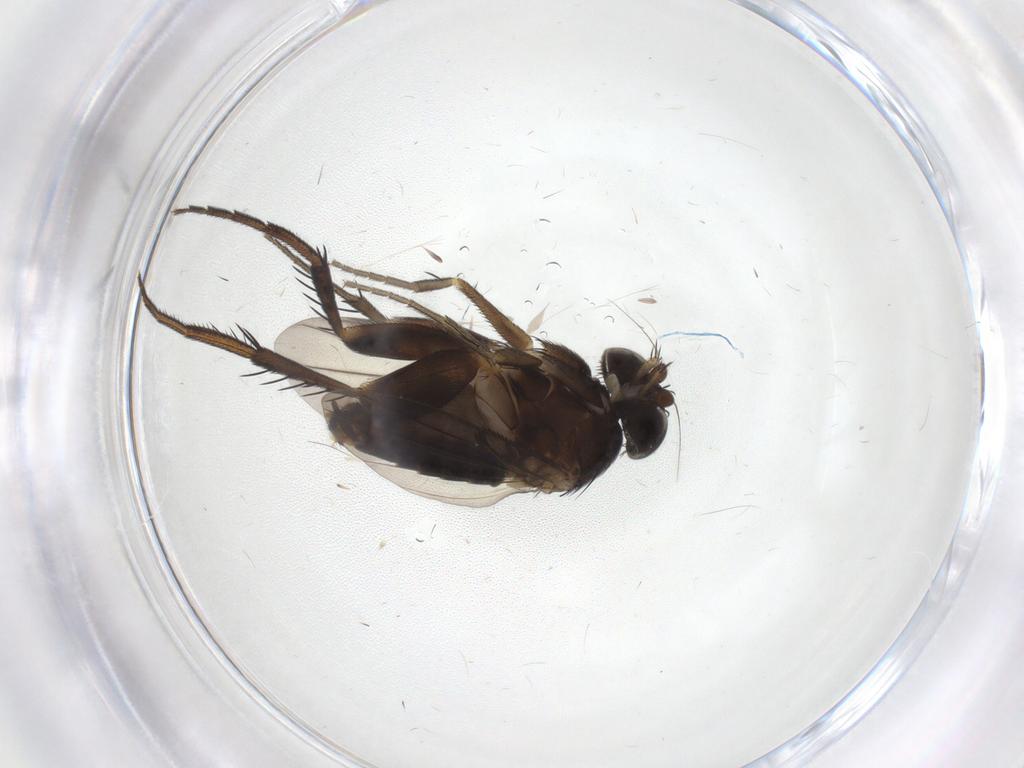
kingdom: Animalia
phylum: Arthropoda
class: Insecta
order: Diptera
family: Phoridae
